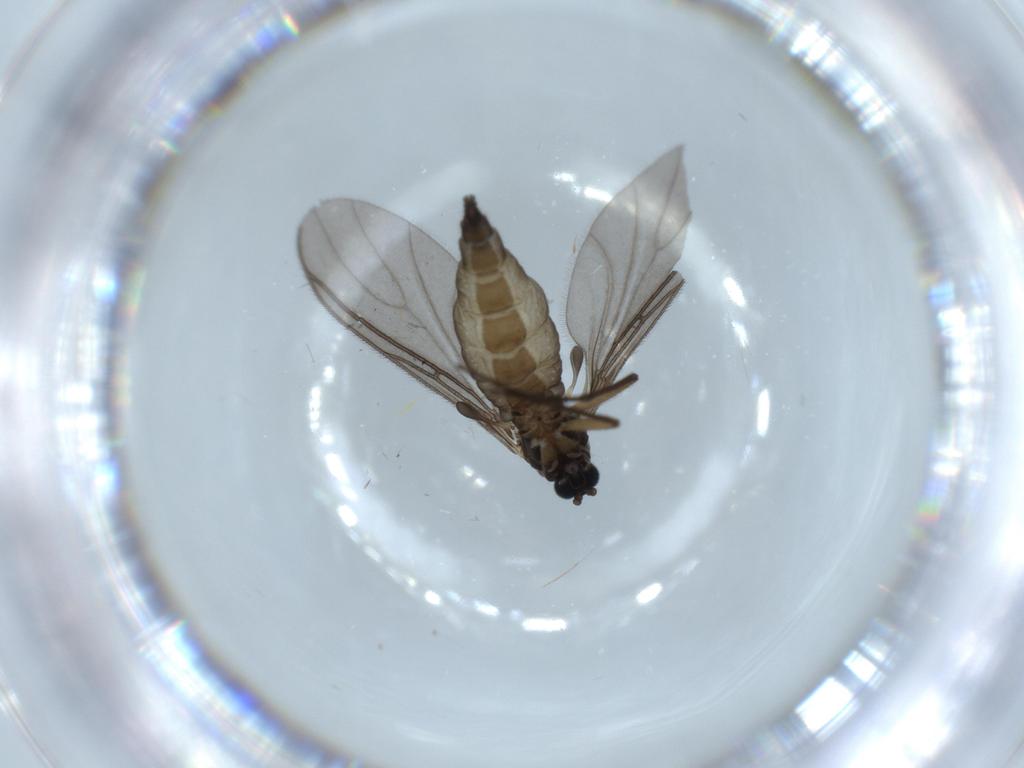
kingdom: Animalia
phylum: Arthropoda
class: Insecta
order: Diptera
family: Sciaridae
